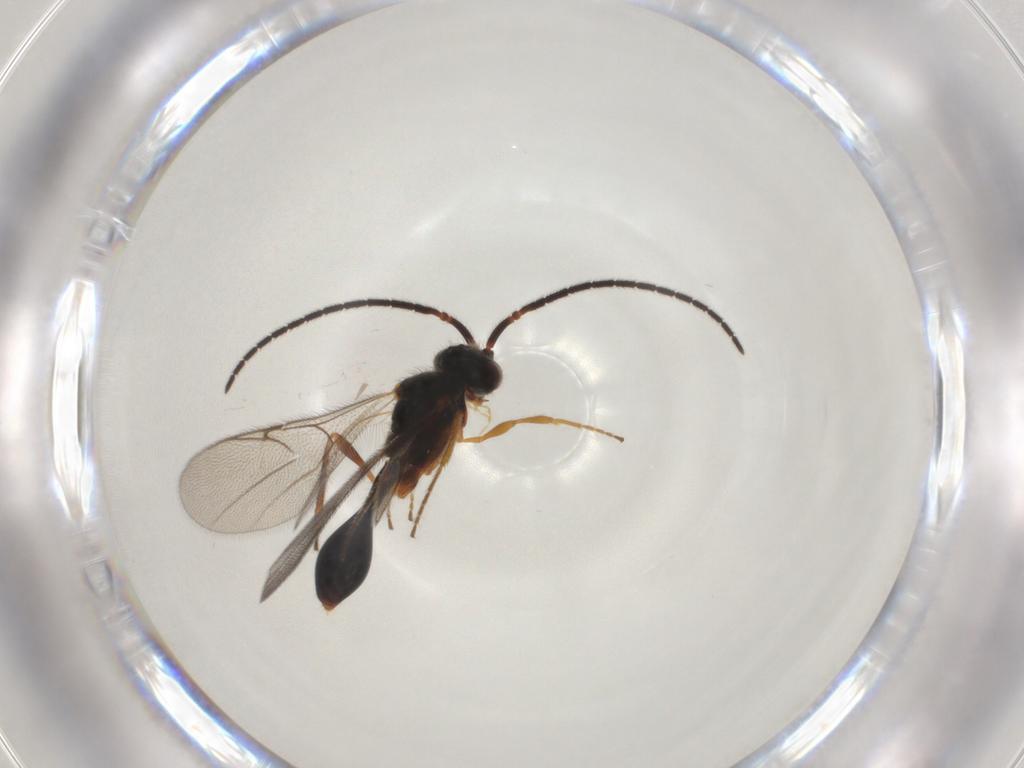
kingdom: Animalia
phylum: Arthropoda
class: Insecta
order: Hymenoptera
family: Diapriidae
